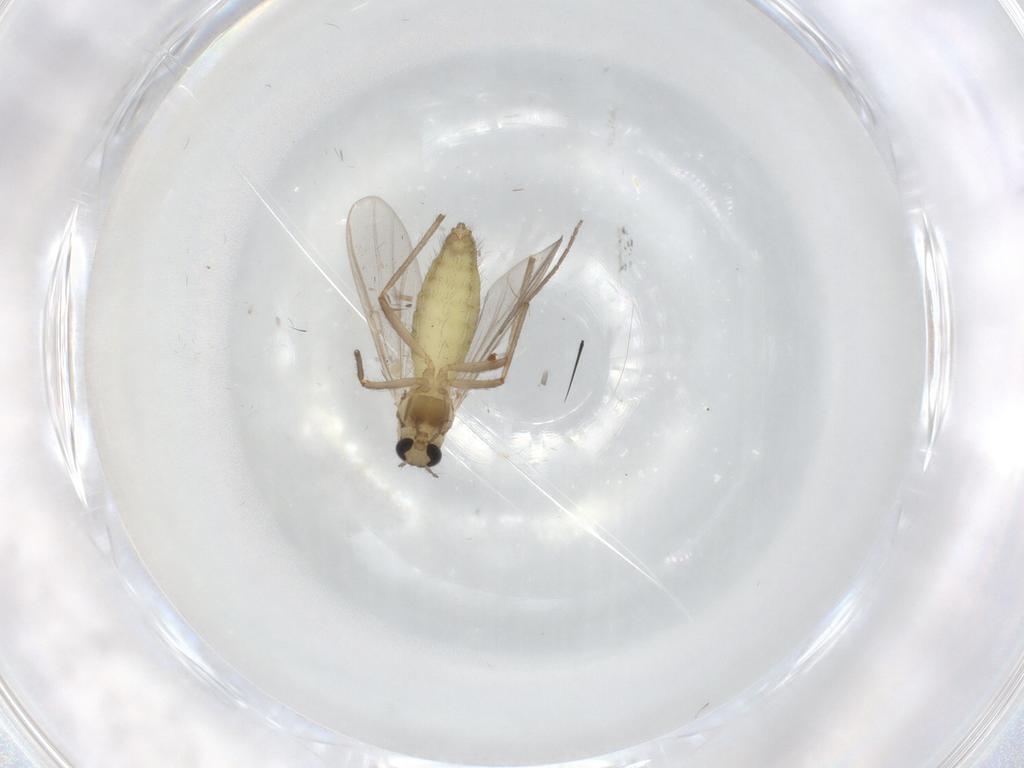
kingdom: Animalia
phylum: Arthropoda
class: Insecta
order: Diptera
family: Chironomidae
